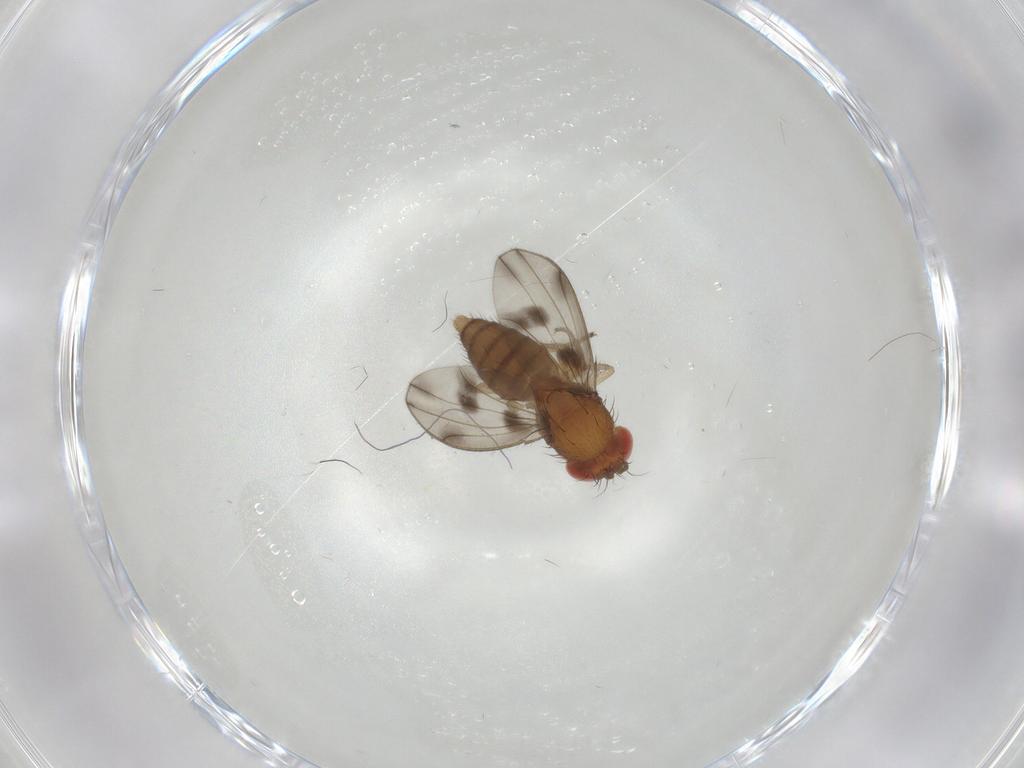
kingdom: Animalia
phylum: Arthropoda
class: Insecta
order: Diptera
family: Drosophilidae
